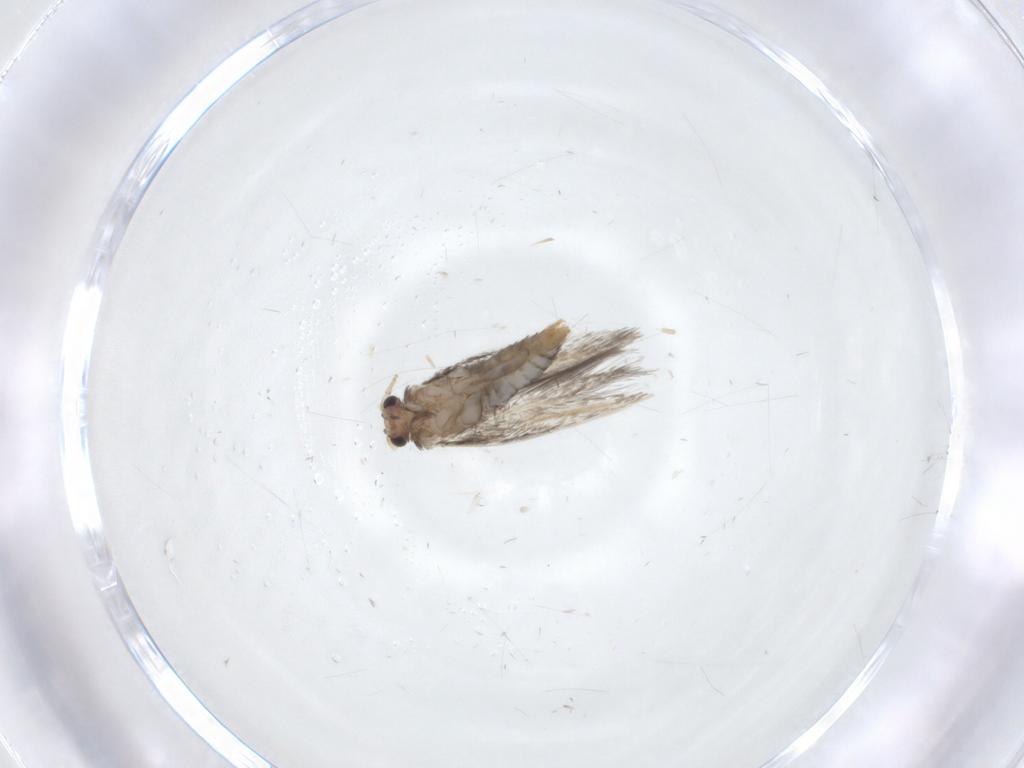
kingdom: Animalia
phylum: Arthropoda
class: Insecta
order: Lepidoptera
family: Nepticulidae
